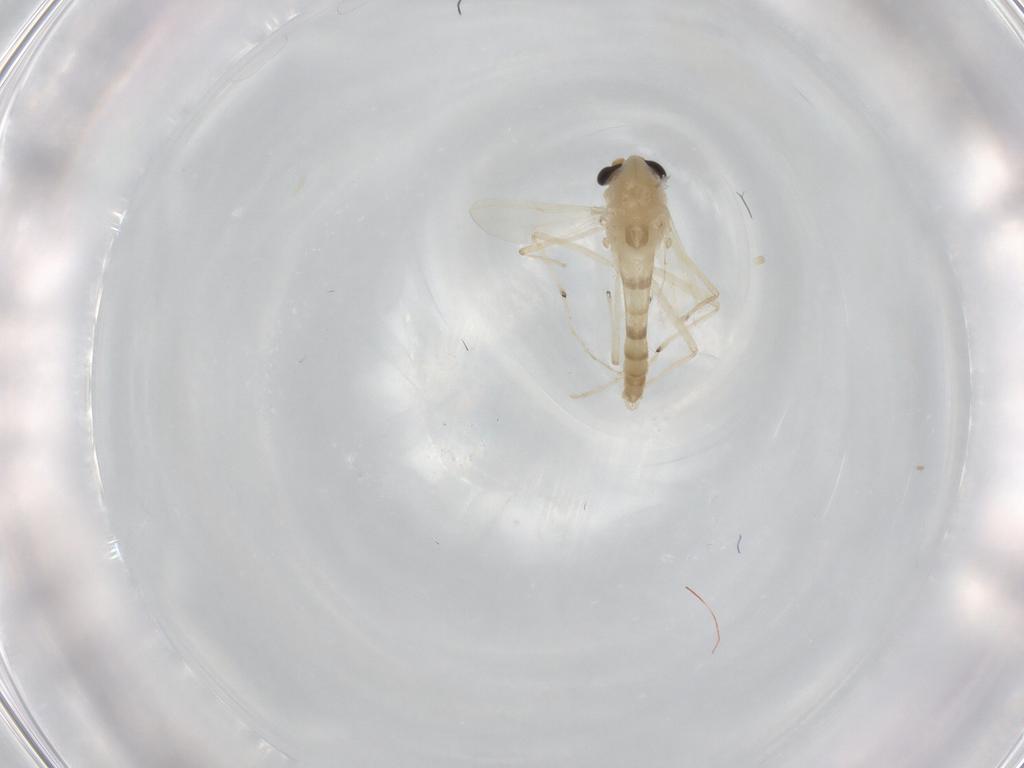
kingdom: Animalia
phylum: Arthropoda
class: Insecta
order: Diptera
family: Chironomidae
